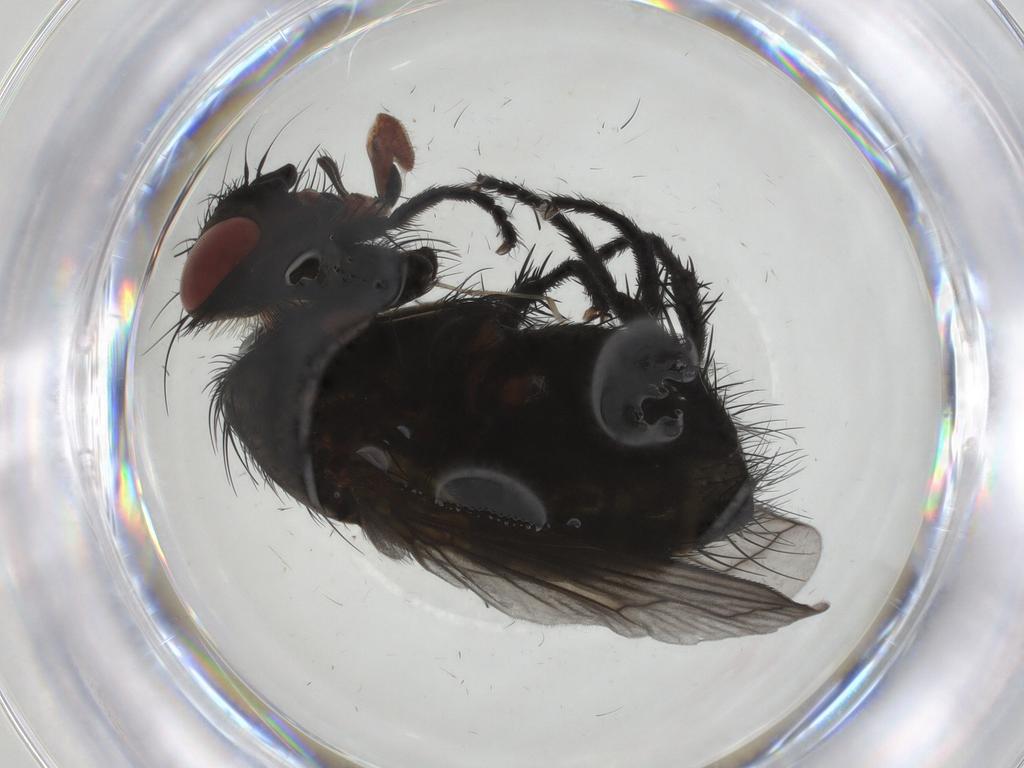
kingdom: Animalia
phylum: Arthropoda
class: Insecta
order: Diptera
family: Tachinidae
